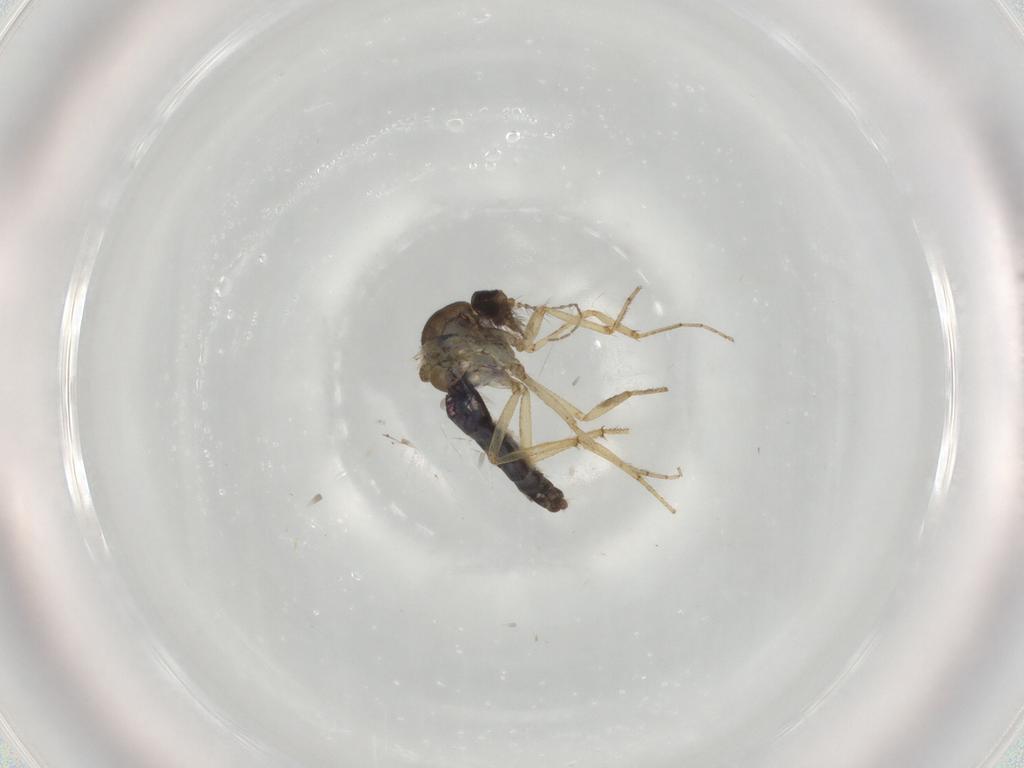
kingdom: Animalia
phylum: Arthropoda
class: Insecta
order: Diptera
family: Ceratopogonidae
